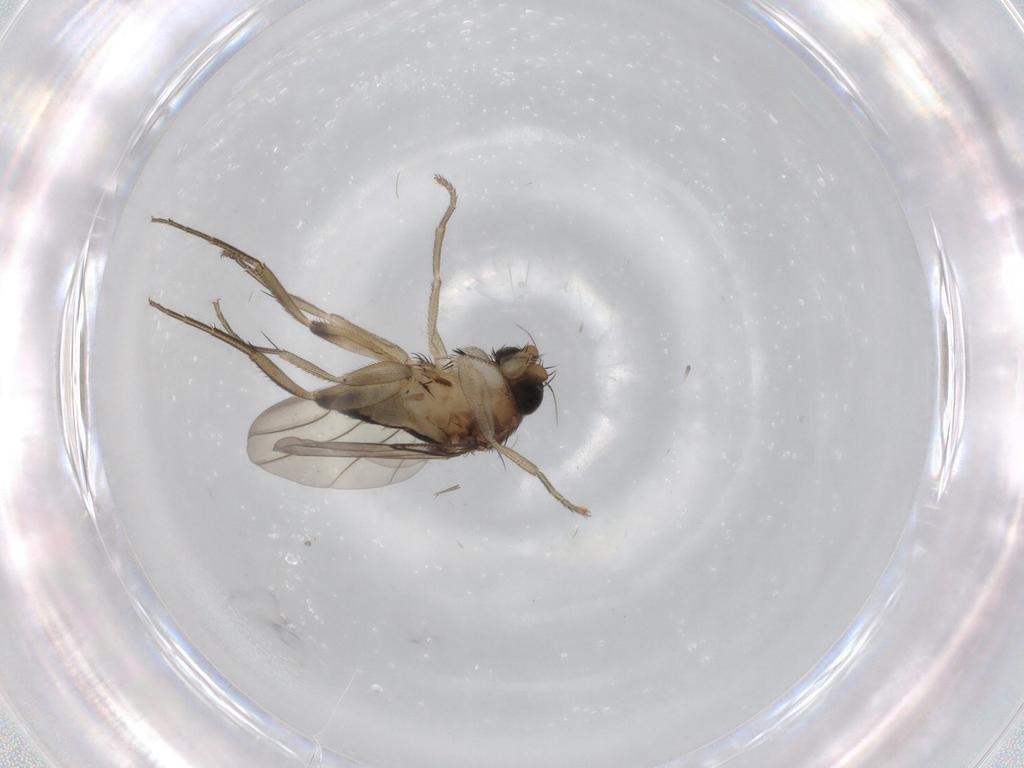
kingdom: Animalia
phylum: Arthropoda
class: Insecta
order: Diptera
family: Phoridae
